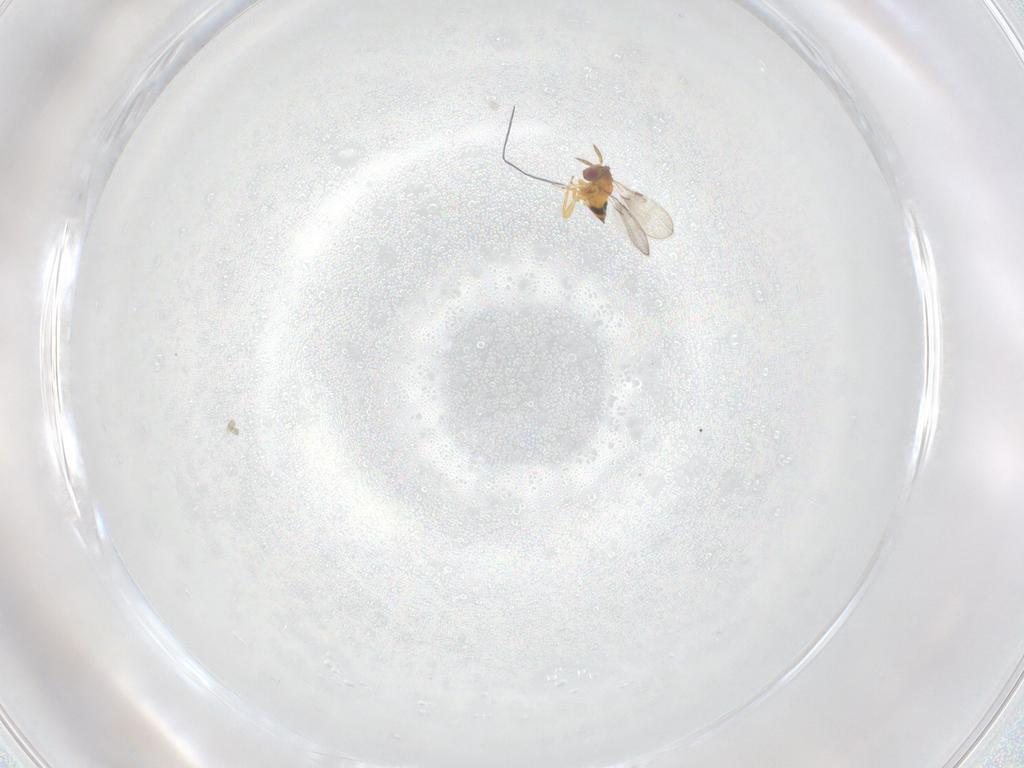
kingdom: Animalia
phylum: Arthropoda
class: Insecta
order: Hymenoptera
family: Trichogrammatidae
